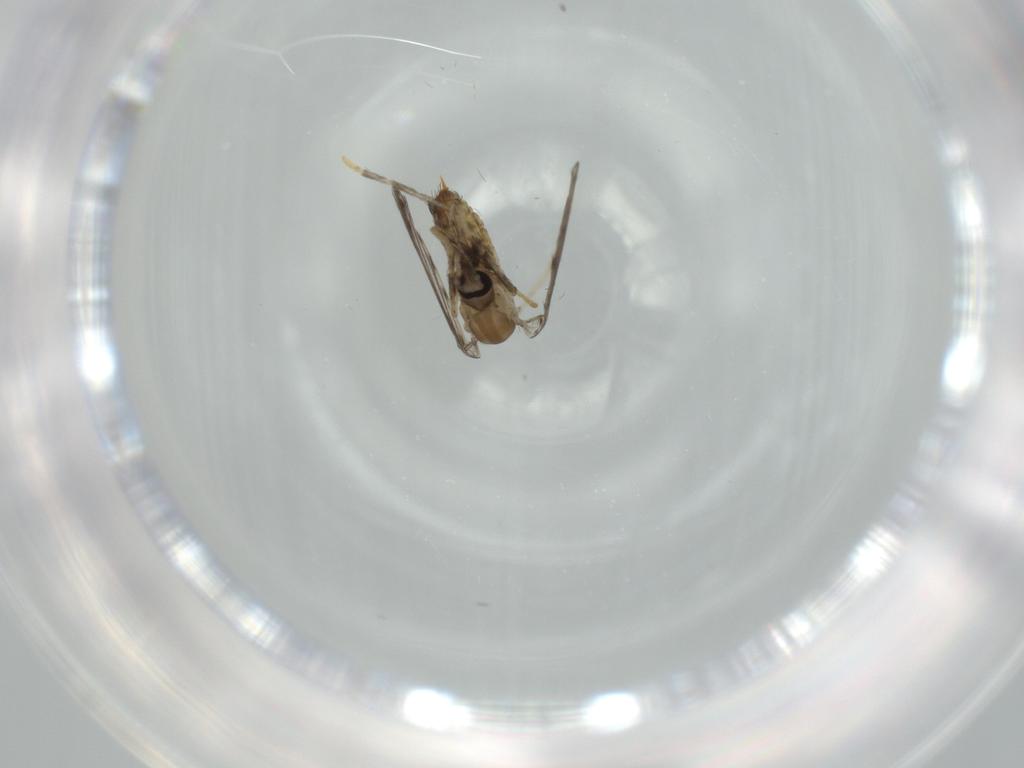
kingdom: Animalia
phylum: Arthropoda
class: Insecta
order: Diptera
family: Psychodidae
